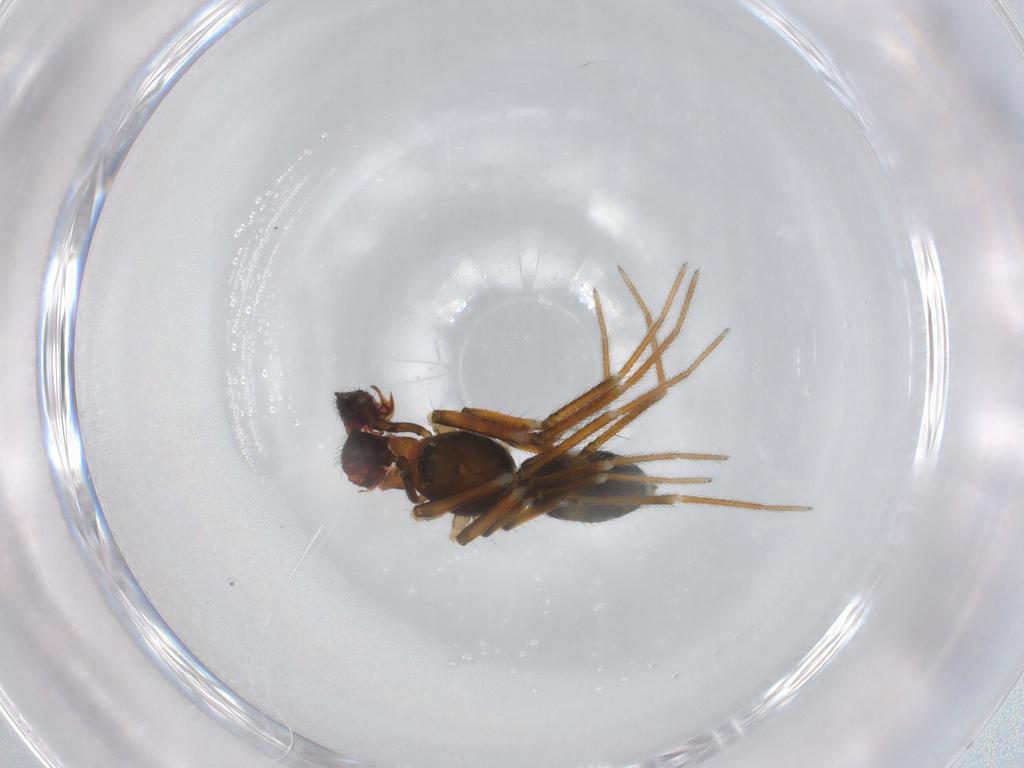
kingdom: Animalia
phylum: Arthropoda
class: Arachnida
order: Araneae
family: Linyphiidae
